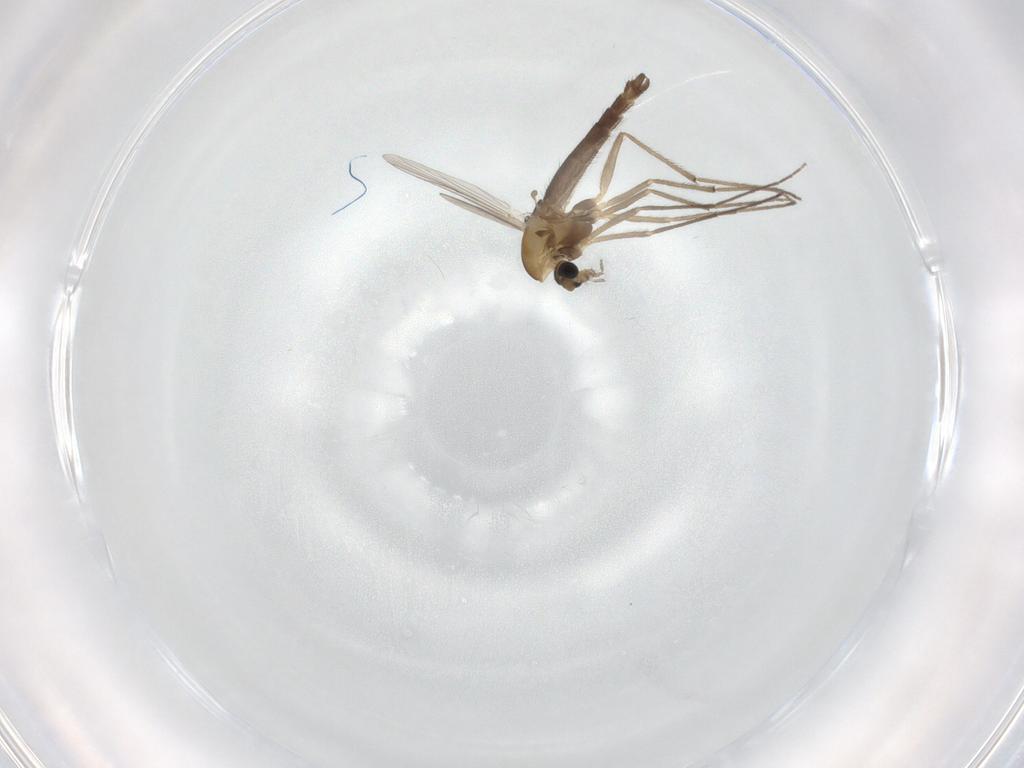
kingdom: Animalia
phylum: Arthropoda
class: Insecta
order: Diptera
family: Chironomidae
